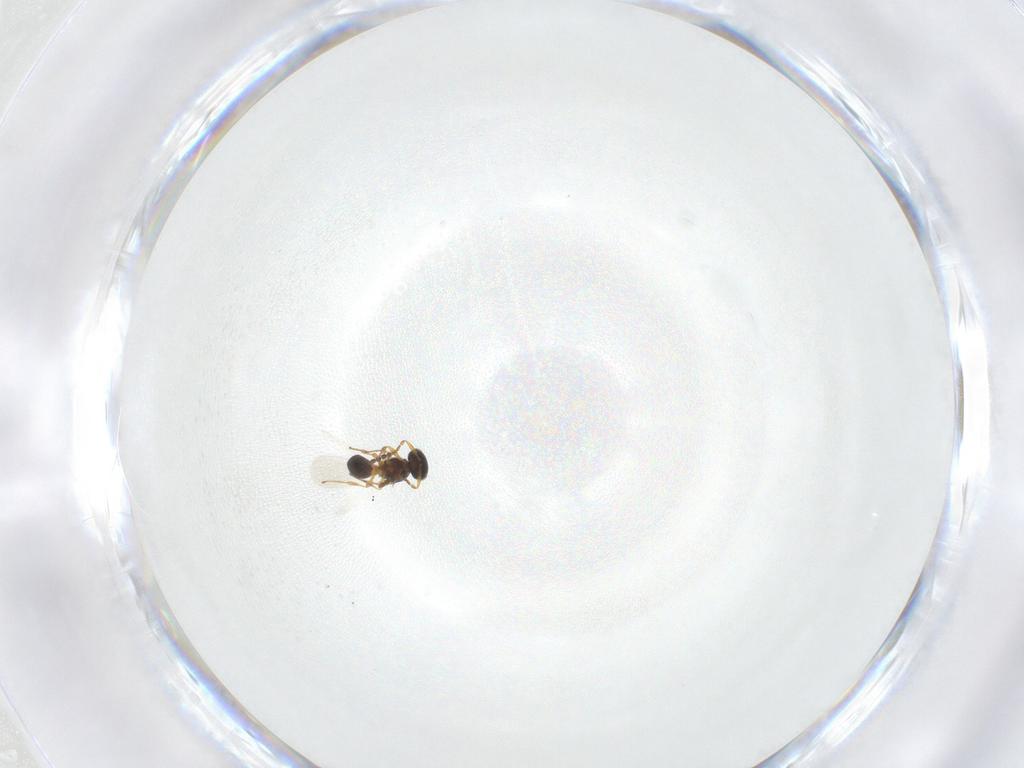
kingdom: Animalia
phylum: Arthropoda
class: Insecta
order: Hymenoptera
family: Platygastridae
